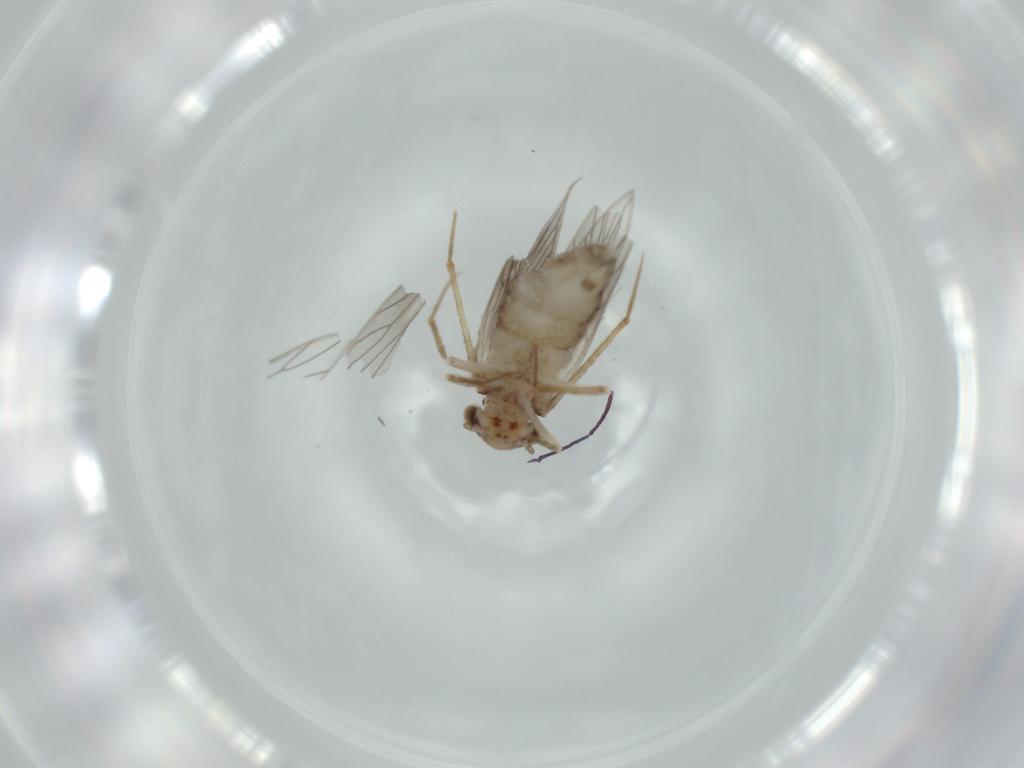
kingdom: Animalia
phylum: Arthropoda
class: Insecta
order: Psocodea
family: Lepidopsocidae
